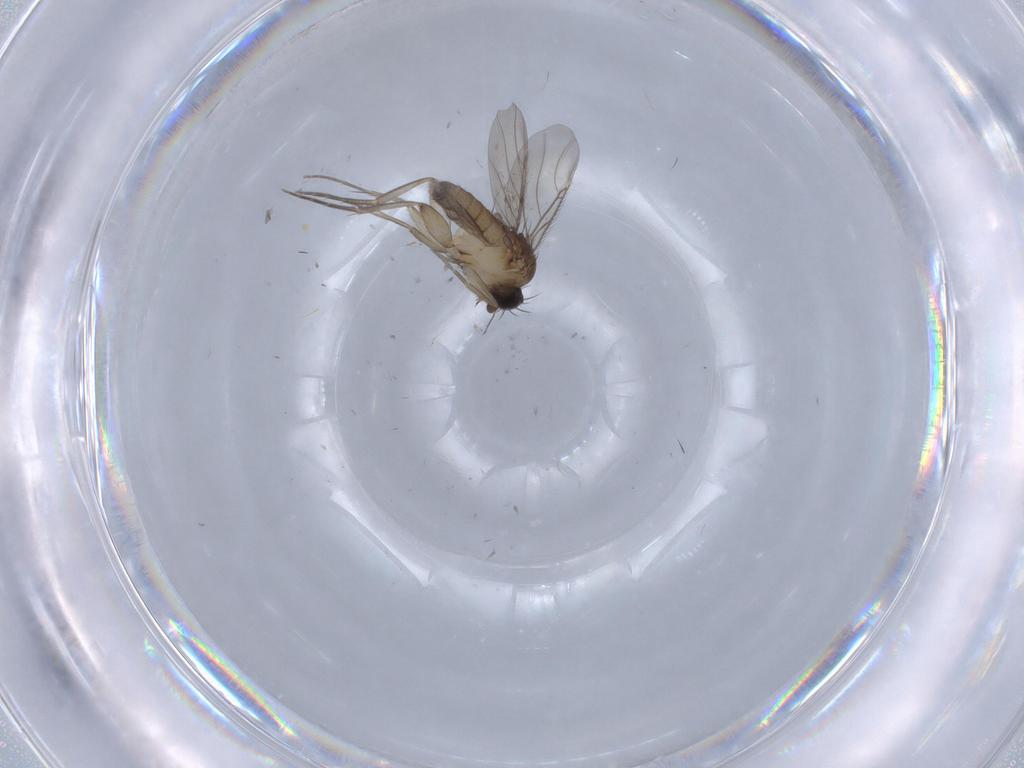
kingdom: Animalia
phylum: Arthropoda
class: Insecta
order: Diptera
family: Phoridae
